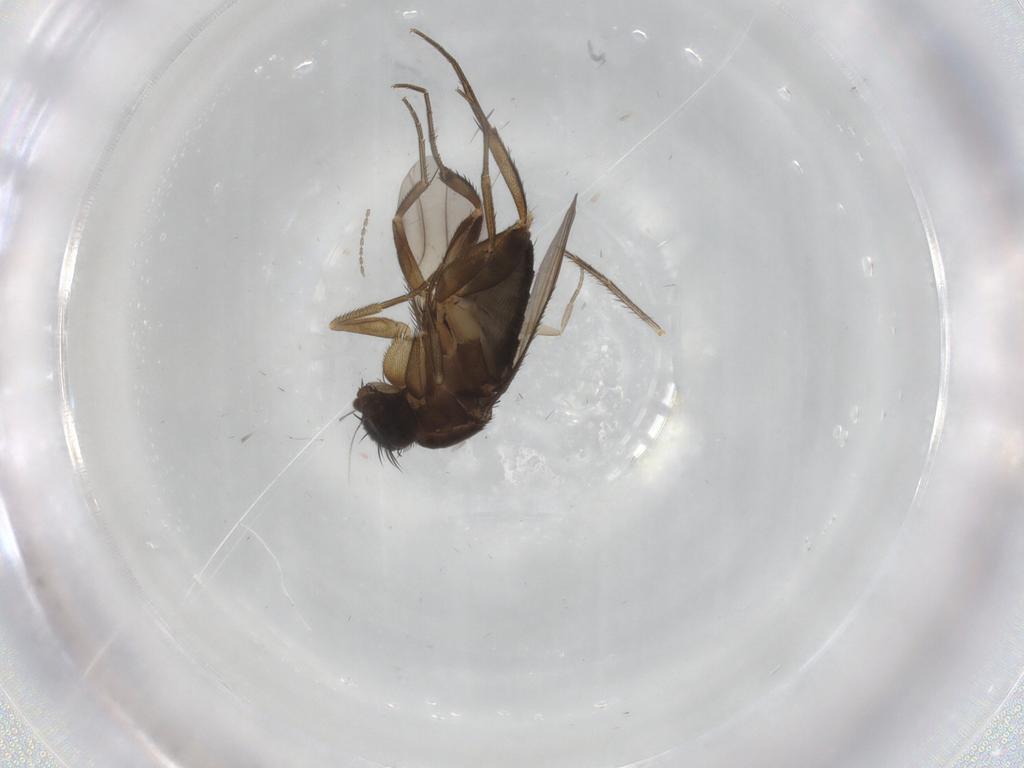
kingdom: Animalia
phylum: Arthropoda
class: Insecta
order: Diptera
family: Phoridae
